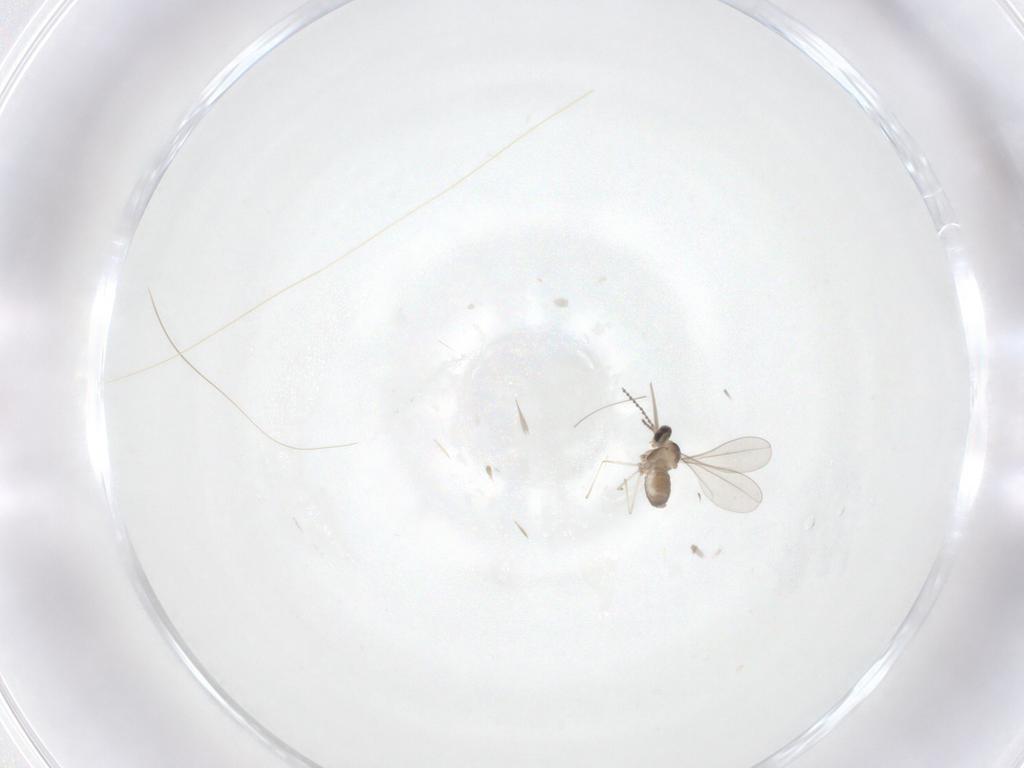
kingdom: Animalia
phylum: Arthropoda
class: Insecta
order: Diptera
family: Cecidomyiidae
